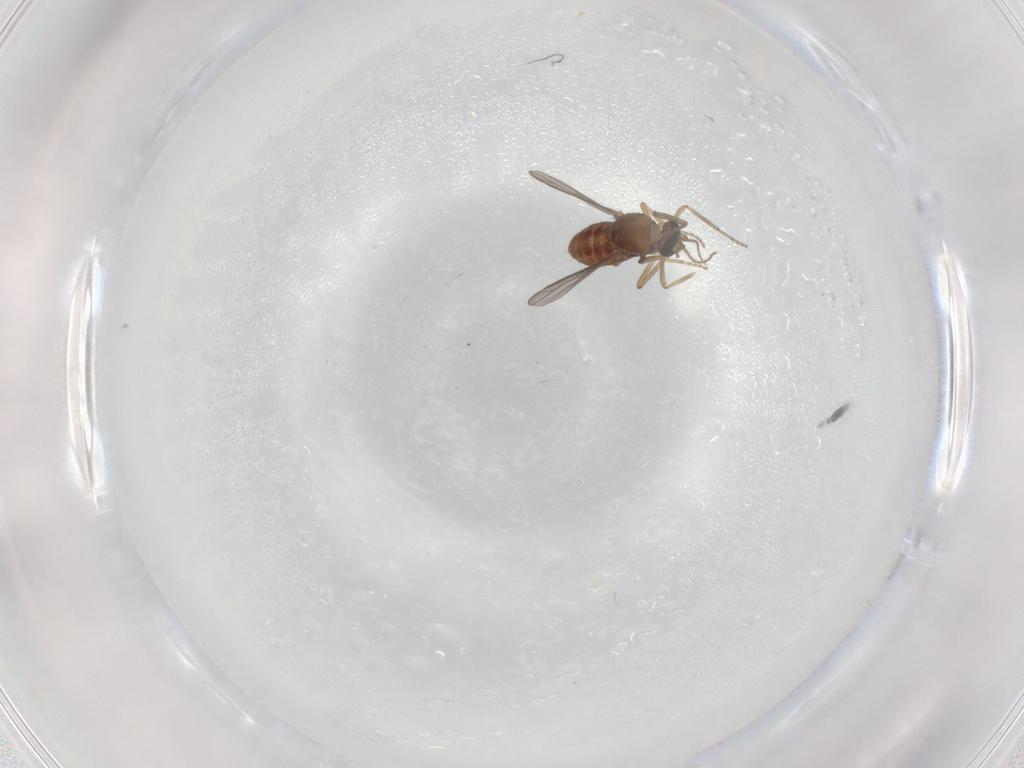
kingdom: Animalia
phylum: Arthropoda
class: Insecta
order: Diptera
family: Ceratopogonidae
